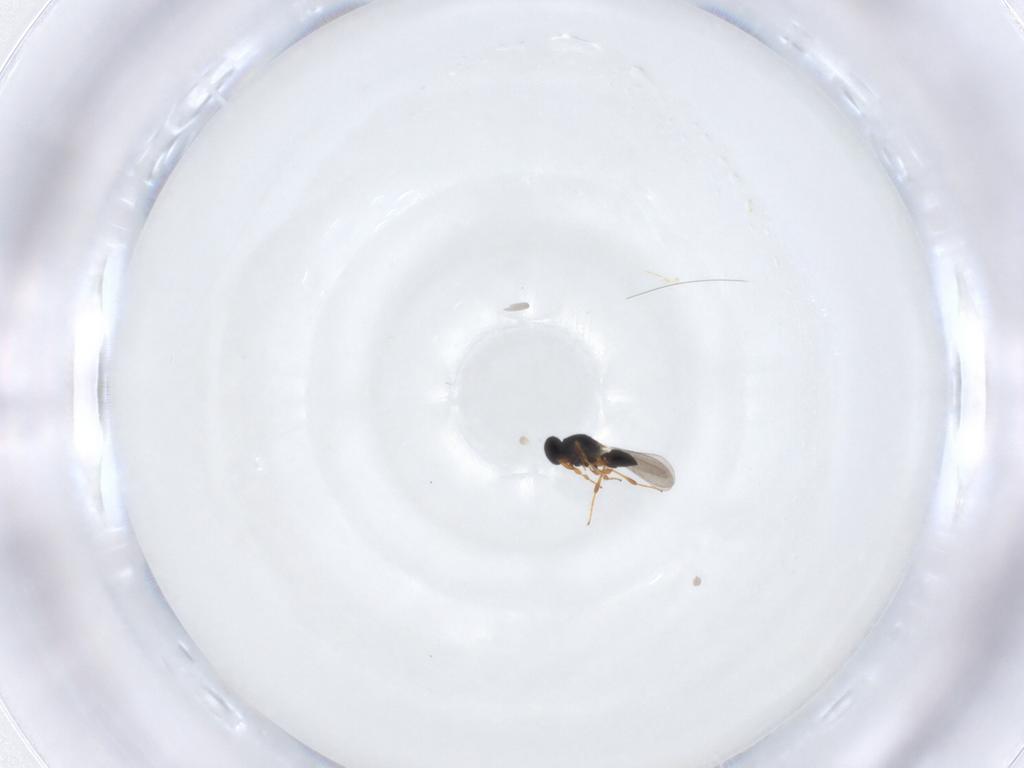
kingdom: Animalia
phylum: Arthropoda
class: Insecta
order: Hymenoptera
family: Platygastridae
